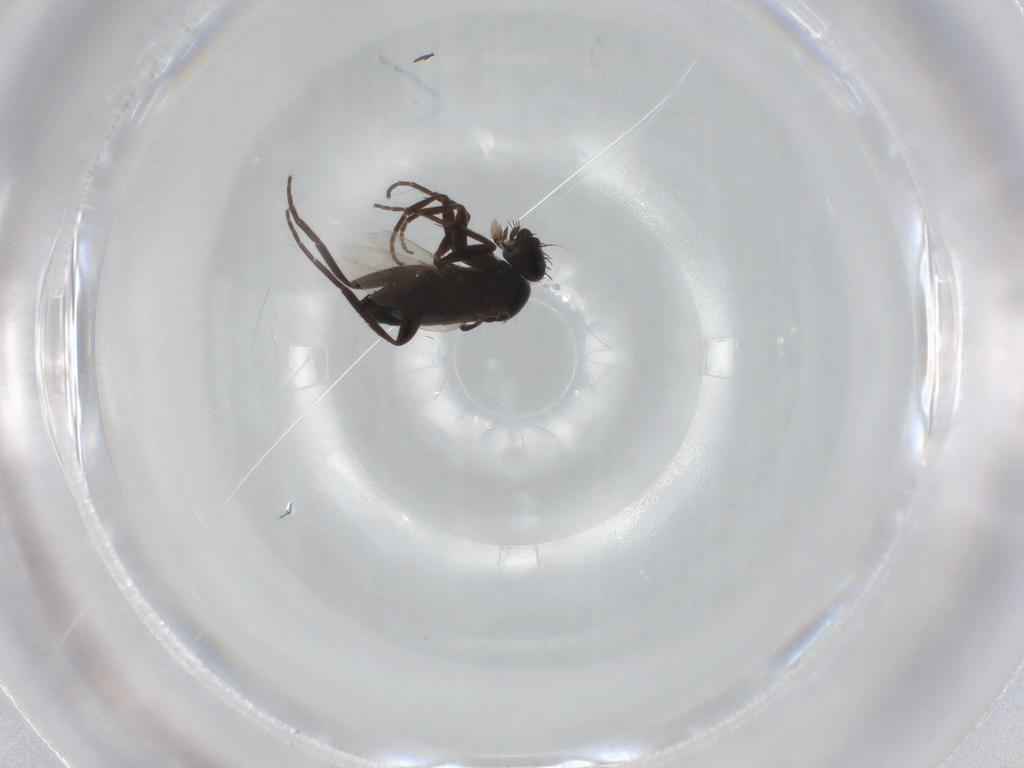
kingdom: Animalia
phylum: Arthropoda
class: Insecta
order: Diptera
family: Phoridae
